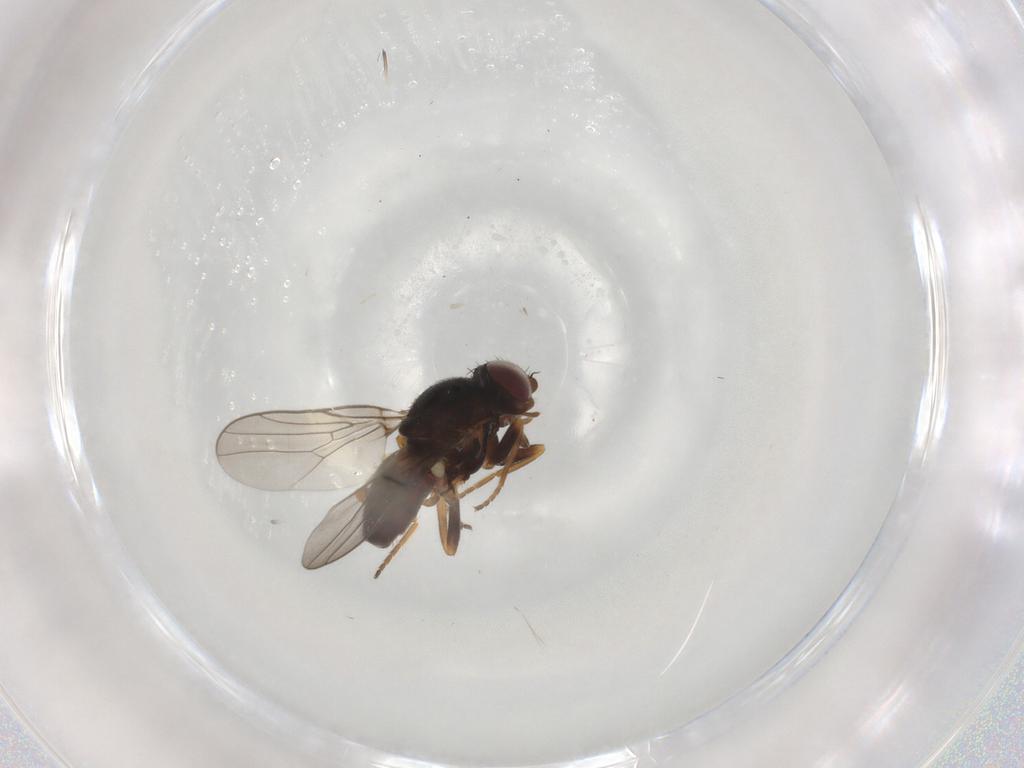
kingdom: Animalia
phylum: Arthropoda
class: Insecta
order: Diptera
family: Chloropidae
